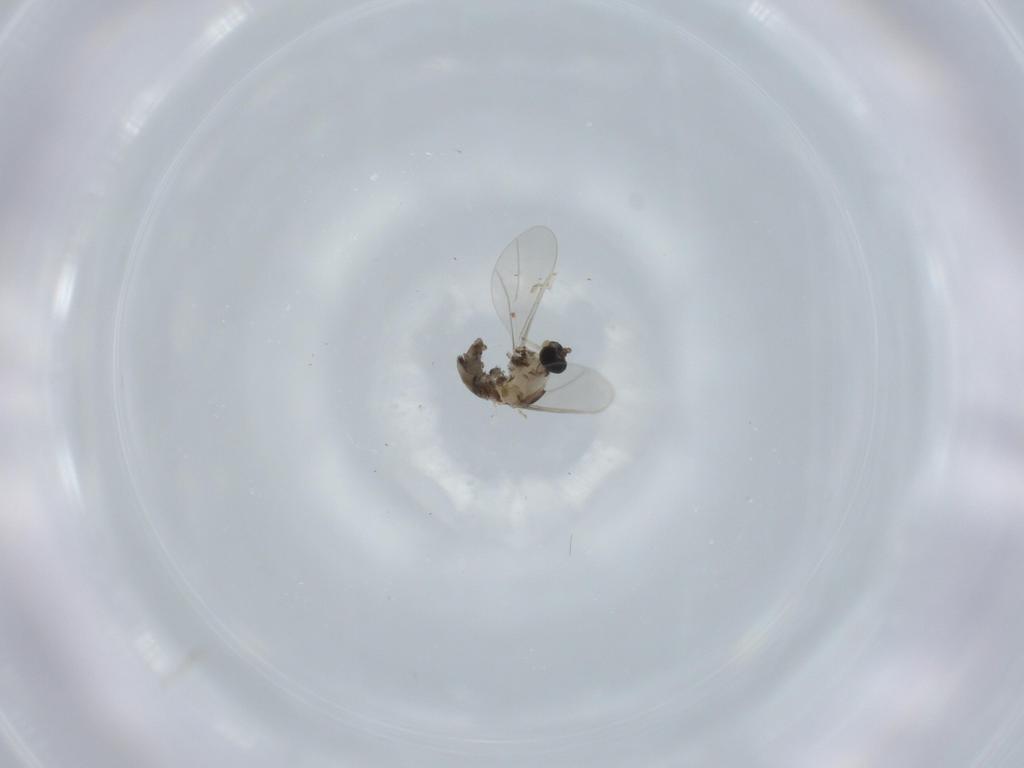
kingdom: Animalia
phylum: Arthropoda
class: Insecta
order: Diptera
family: Cecidomyiidae
